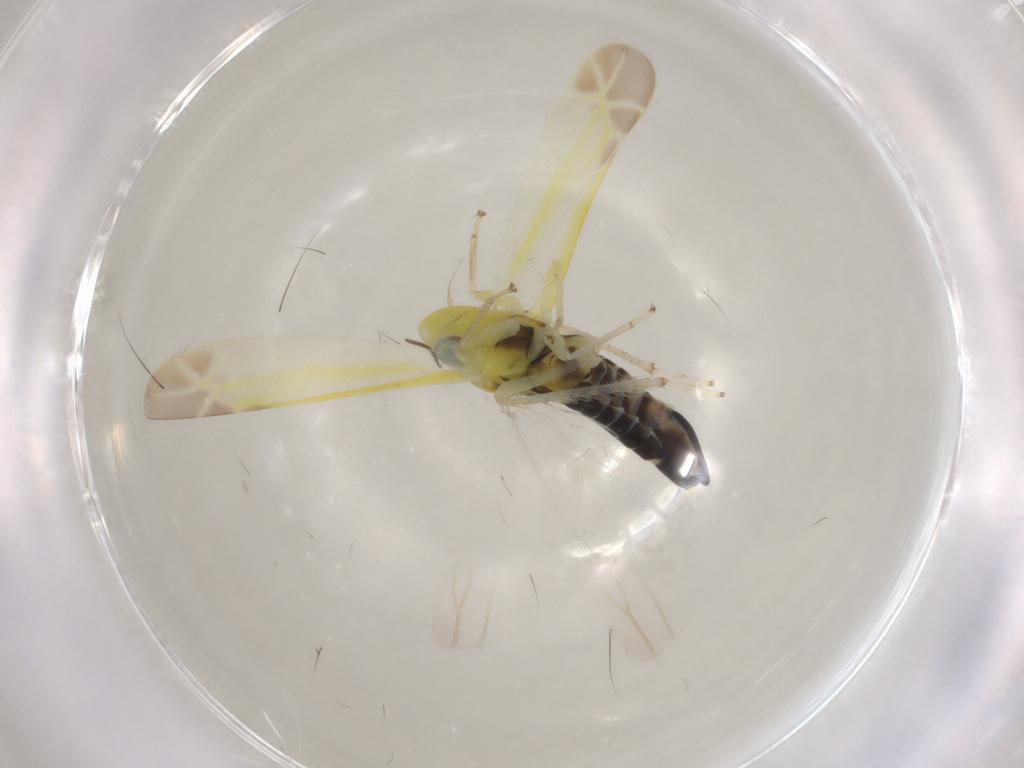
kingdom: Animalia
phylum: Arthropoda
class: Insecta
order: Hemiptera
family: Cicadellidae
